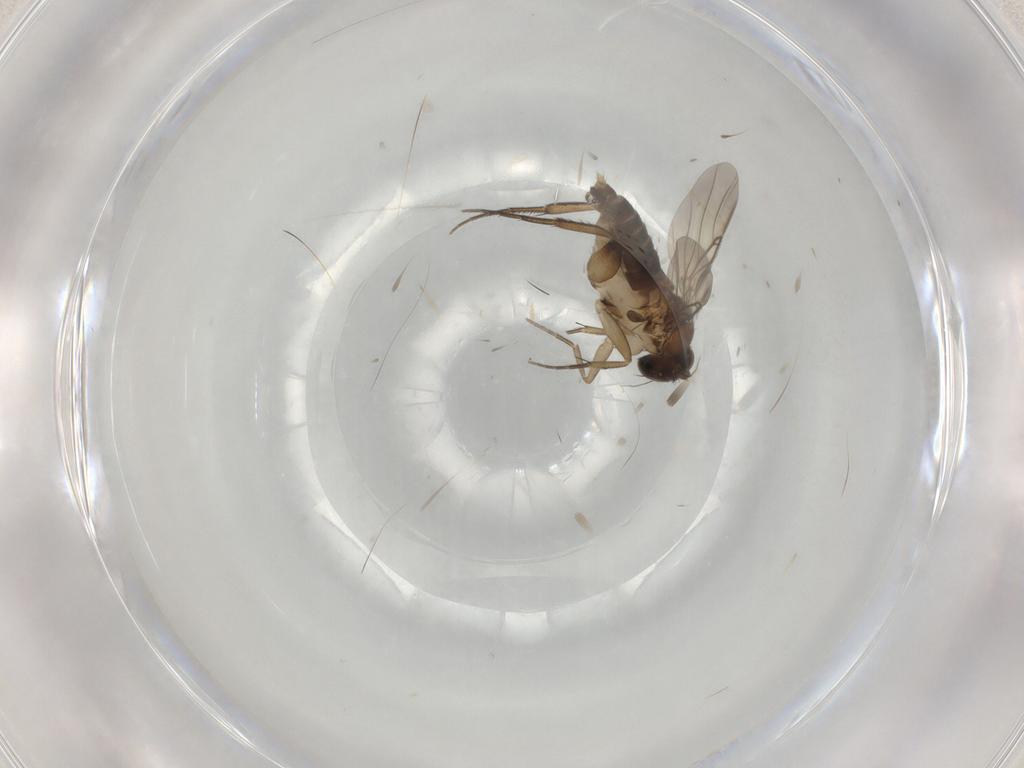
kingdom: Animalia
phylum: Arthropoda
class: Insecta
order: Diptera
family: Phoridae
